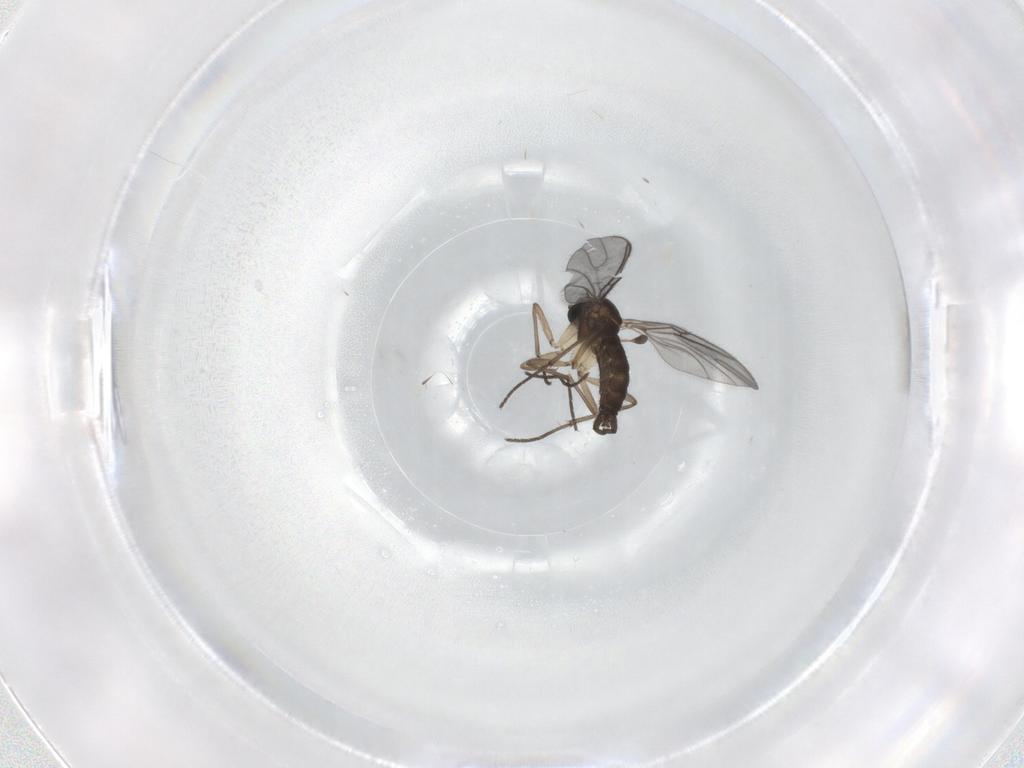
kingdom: Animalia
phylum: Arthropoda
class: Insecta
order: Diptera
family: Sciaridae
